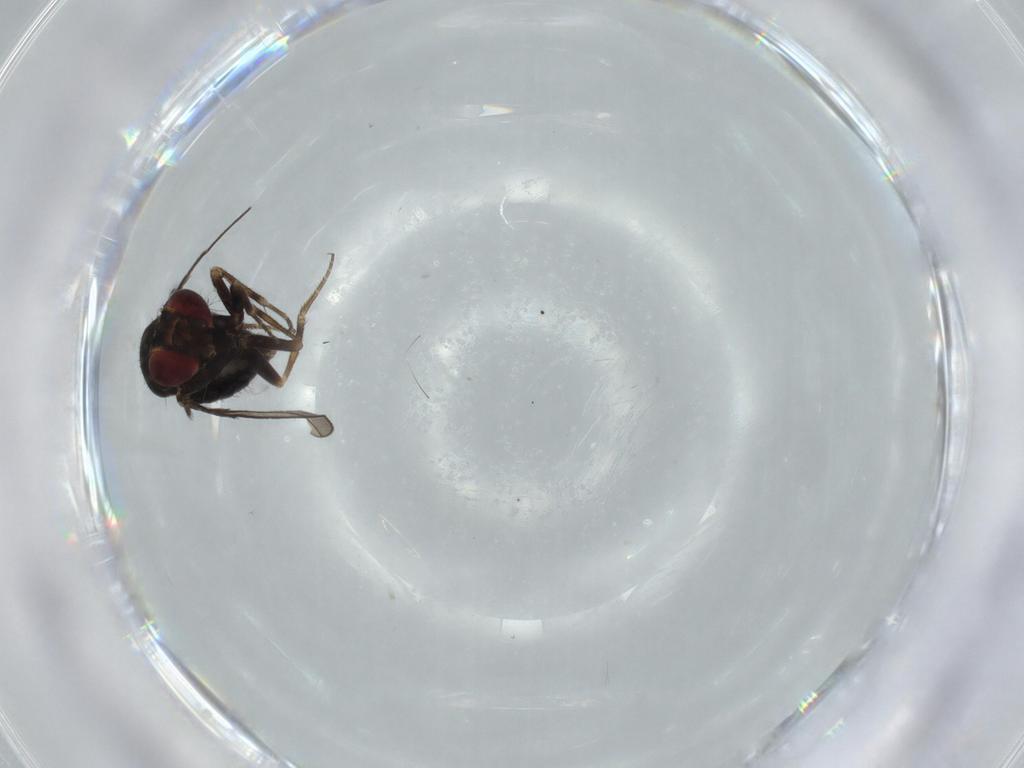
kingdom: Animalia
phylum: Arthropoda
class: Insecta
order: Diptera
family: Ephydridae
